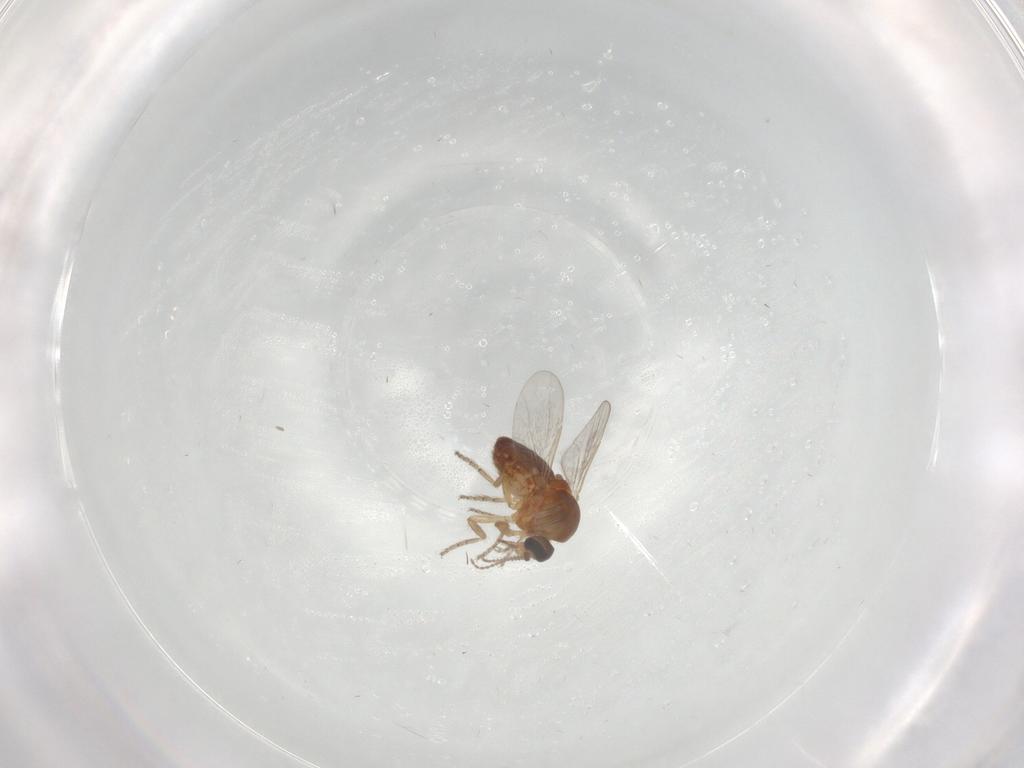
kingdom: Animalia
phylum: Arthropoda
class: Insecta
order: Diptera
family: Ceratopogonidae
